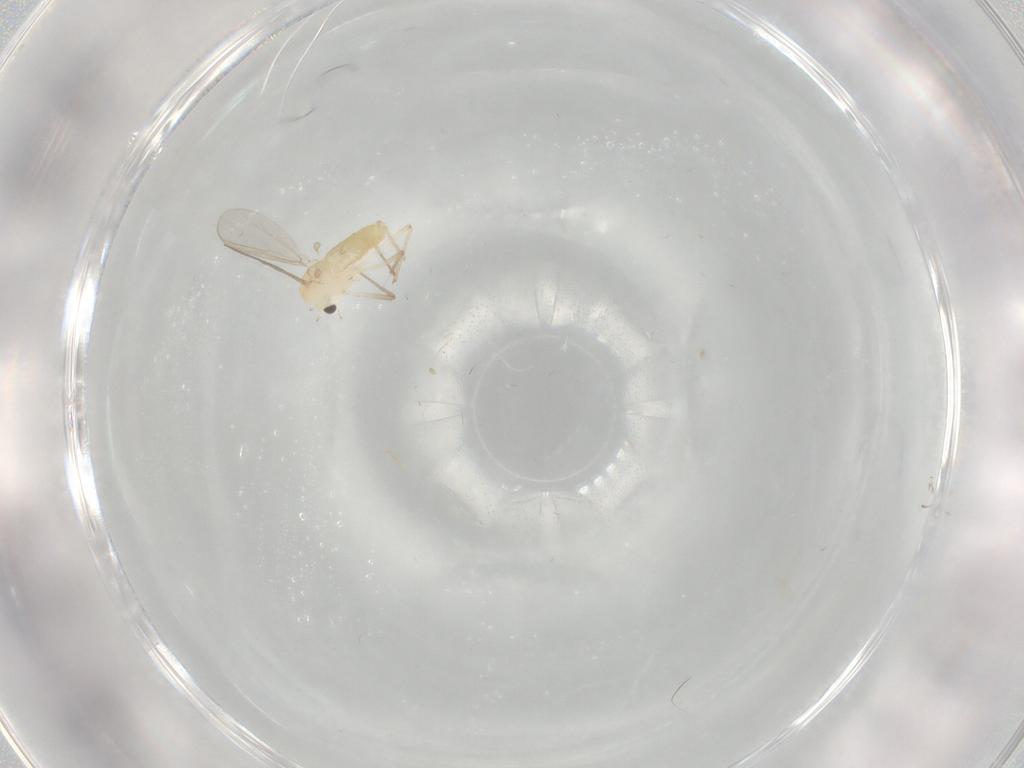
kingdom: Animalia
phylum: Arthropoda
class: Insecta
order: Diptera
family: Chironomidae
